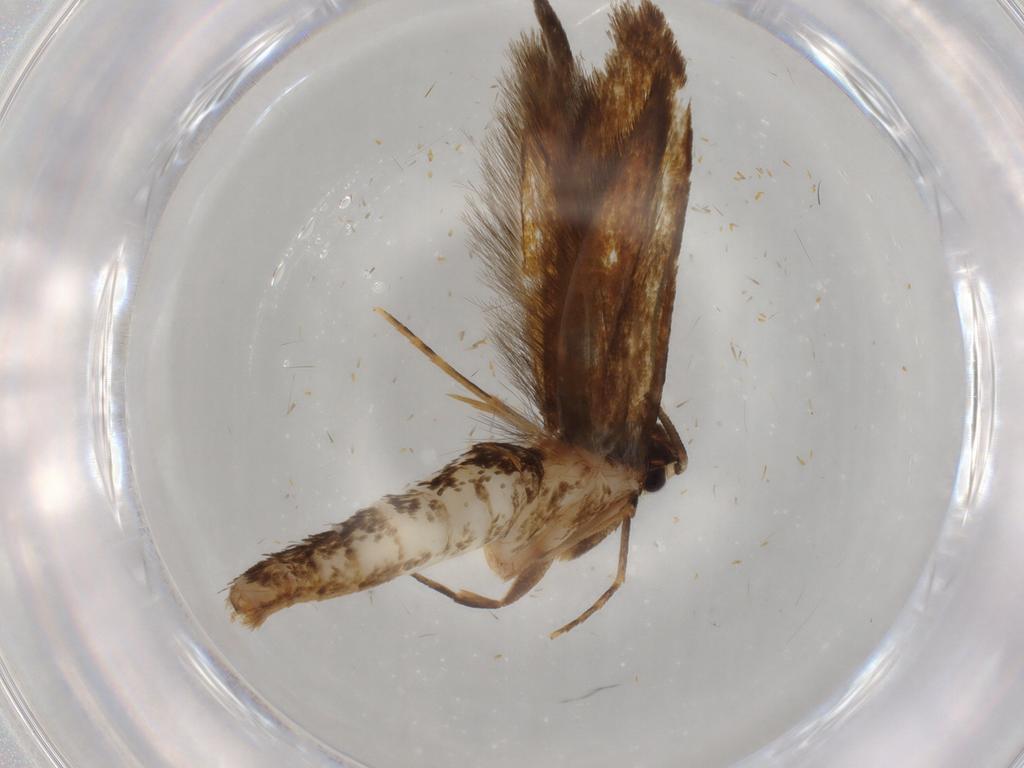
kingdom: Animalia
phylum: Arthropoda
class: Insecta
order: Lepidoptera
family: Tineidae
